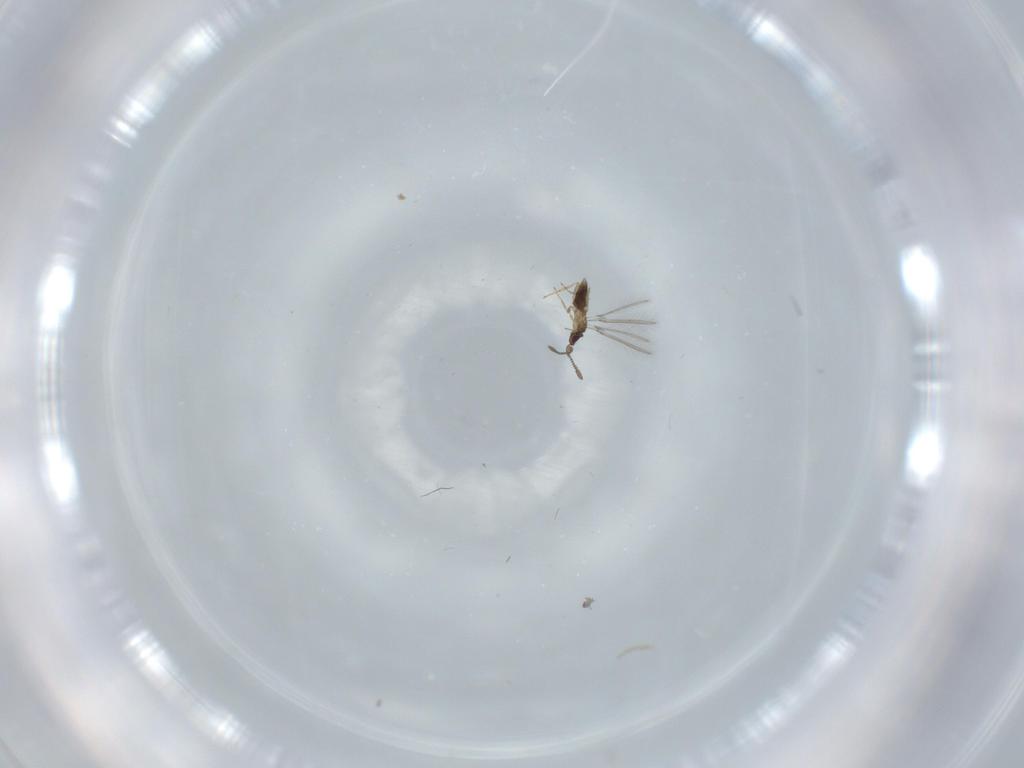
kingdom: Animalia
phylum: Arthropoda
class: Insecta
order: Hymenoptera
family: Mymaridae
